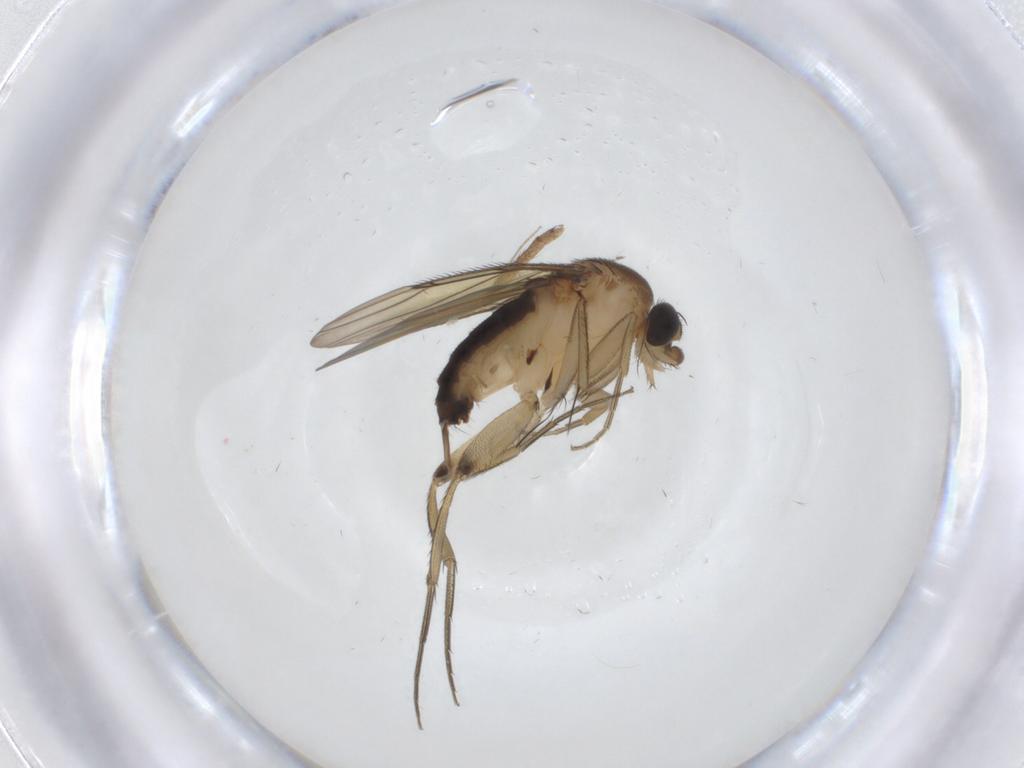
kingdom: Animalia
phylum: Arthropoda
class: Insecta
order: Diptera
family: Phoridae
